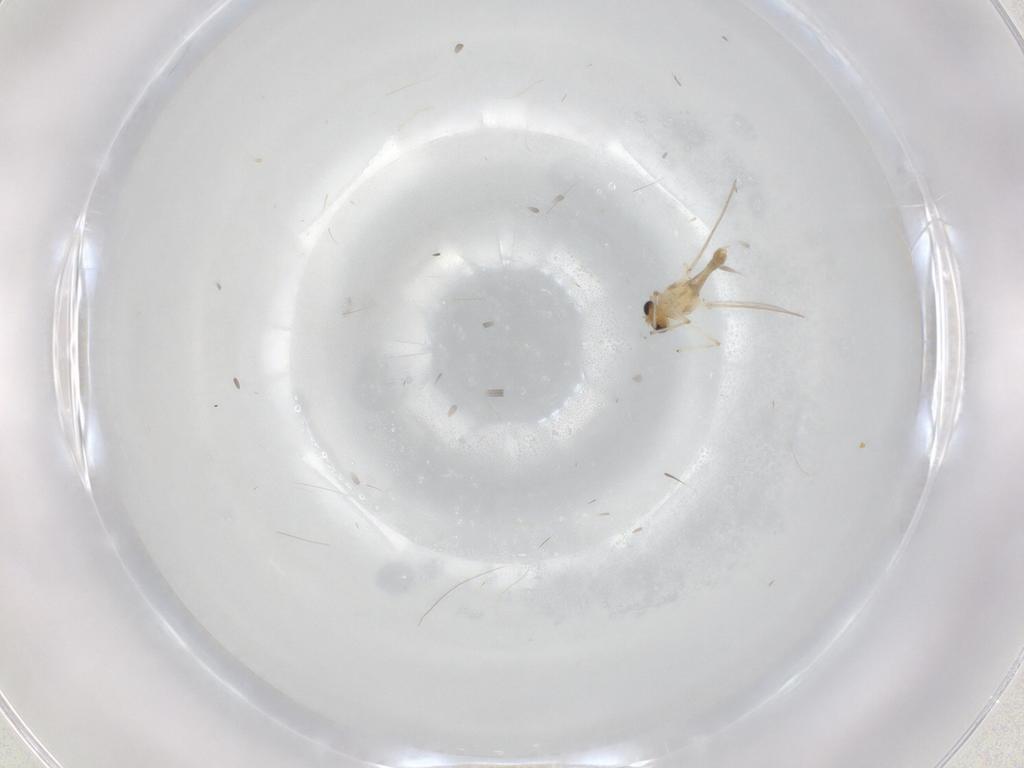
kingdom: Animalia
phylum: Arthropoda
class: Insecta
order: Diptera
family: Chironomidae
